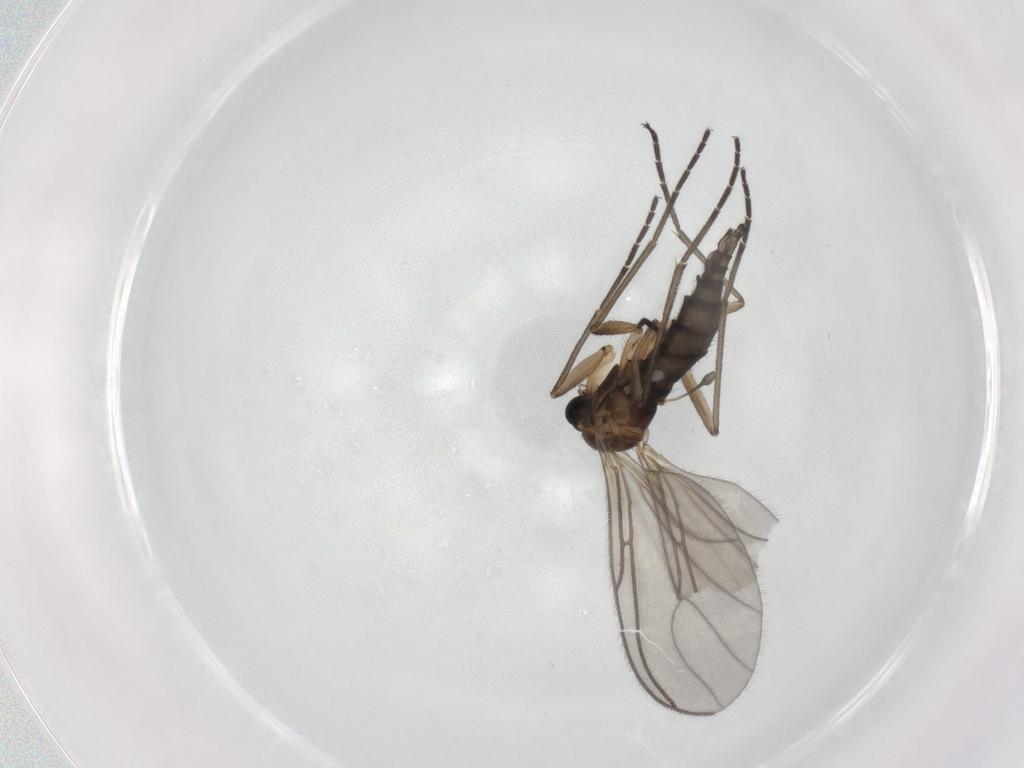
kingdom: Animalia
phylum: Arthropoda
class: Insecta
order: Diptera
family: Sciaridae
